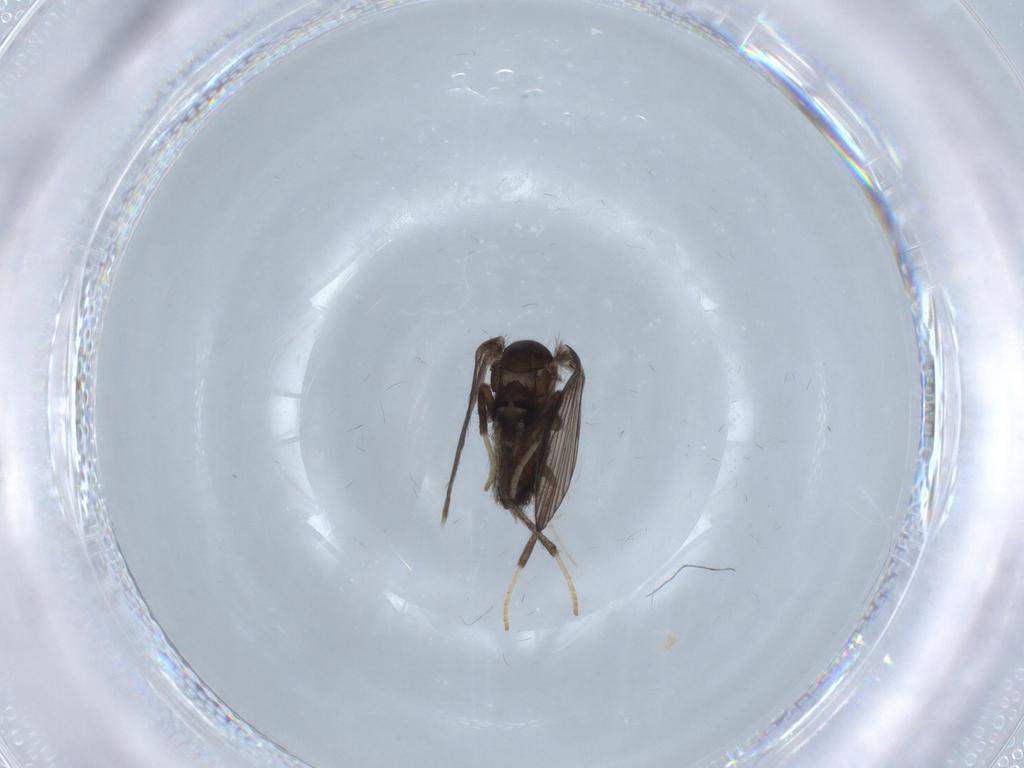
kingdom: Animalia
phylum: Arthropoda
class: Insecta
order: Diptera
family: Psychodidae
